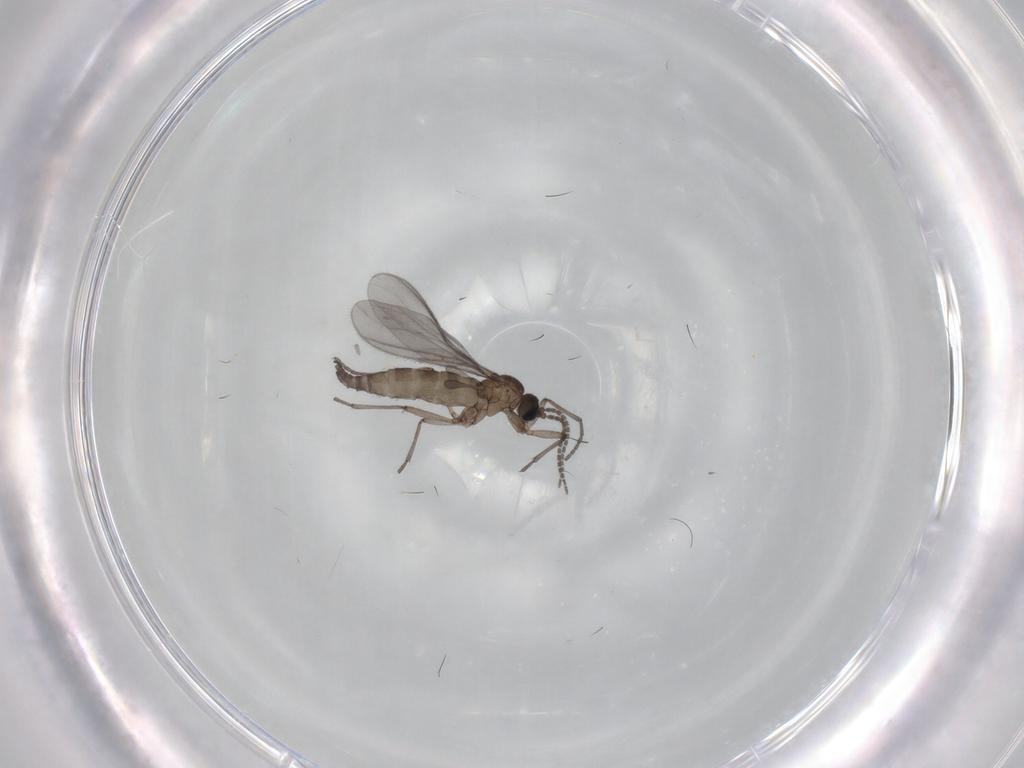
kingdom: Animalia
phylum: Arthropoda
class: Insecta
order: Diptera
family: Sciaridae
